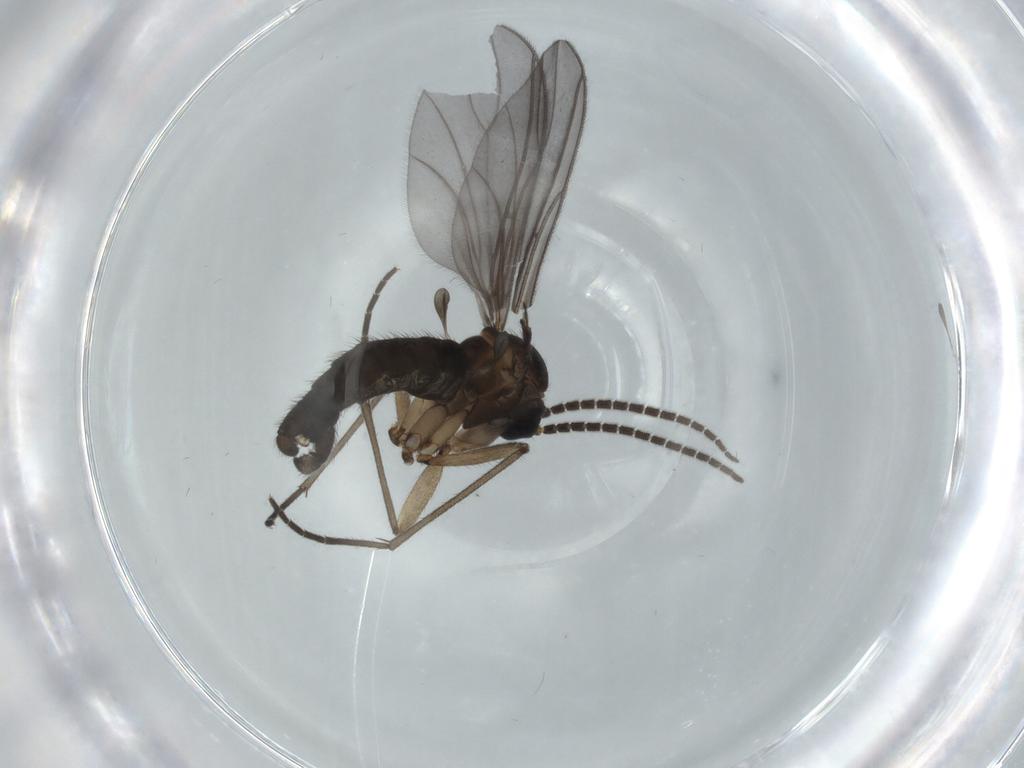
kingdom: Animalia
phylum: Arthropoda
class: Insecta
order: Diptera
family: Sciaridae
